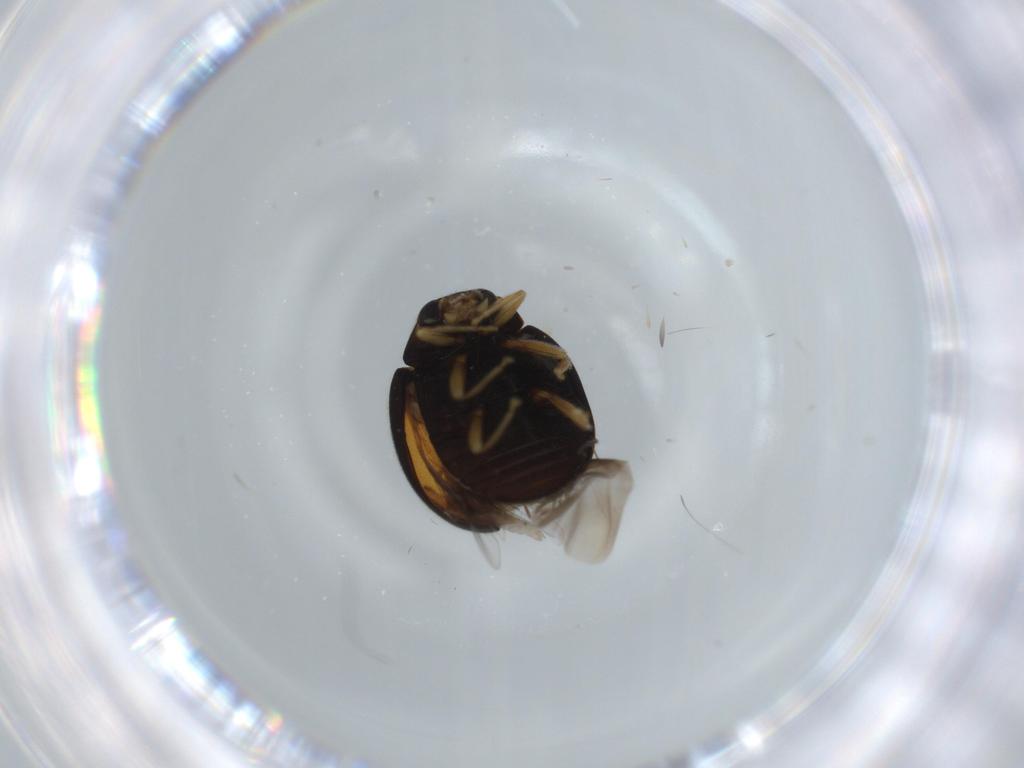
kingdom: Animalia
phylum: Arthropoda
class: Insecta
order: Coleoptera
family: Coccinellidae
